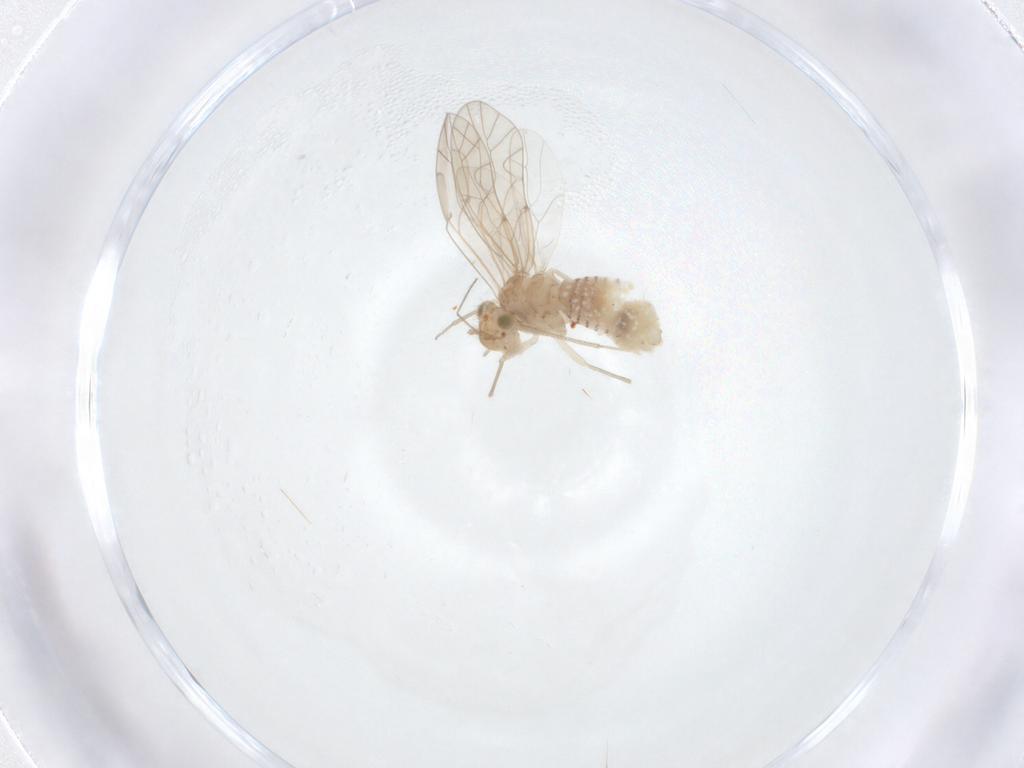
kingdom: Animalia
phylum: Arthropoda
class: Insecta
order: Psocodea
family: Lachesillidae
